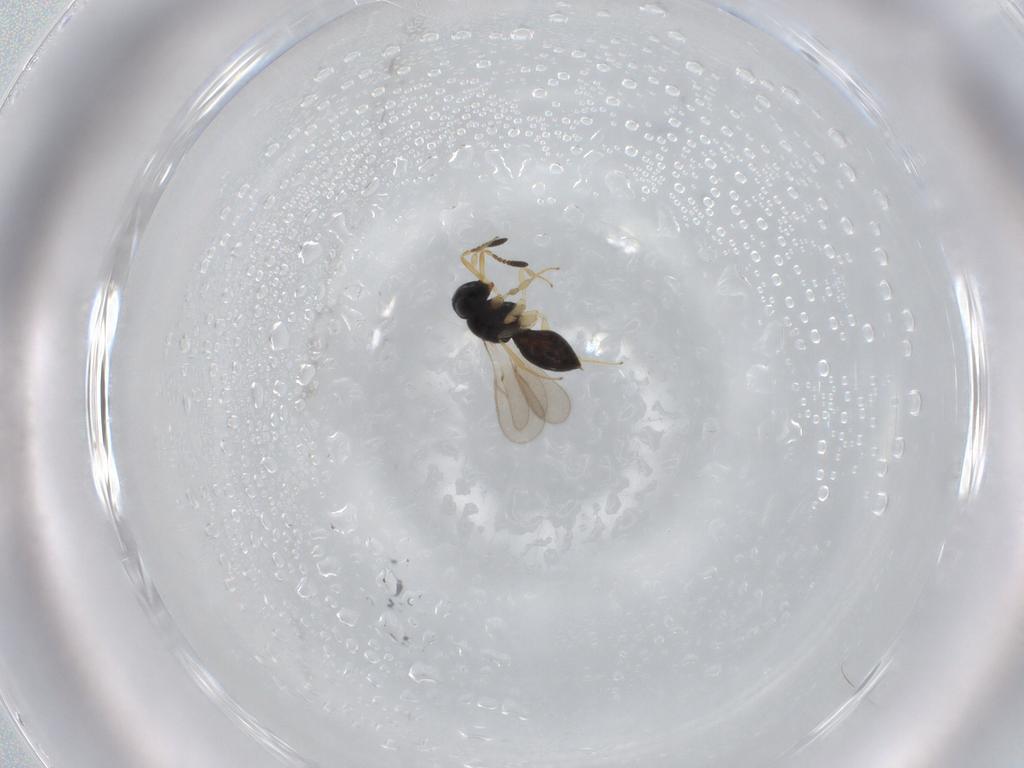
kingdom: Animalia
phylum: Arthropoda
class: Insecta
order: Hymenoptera
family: Scelionidae
